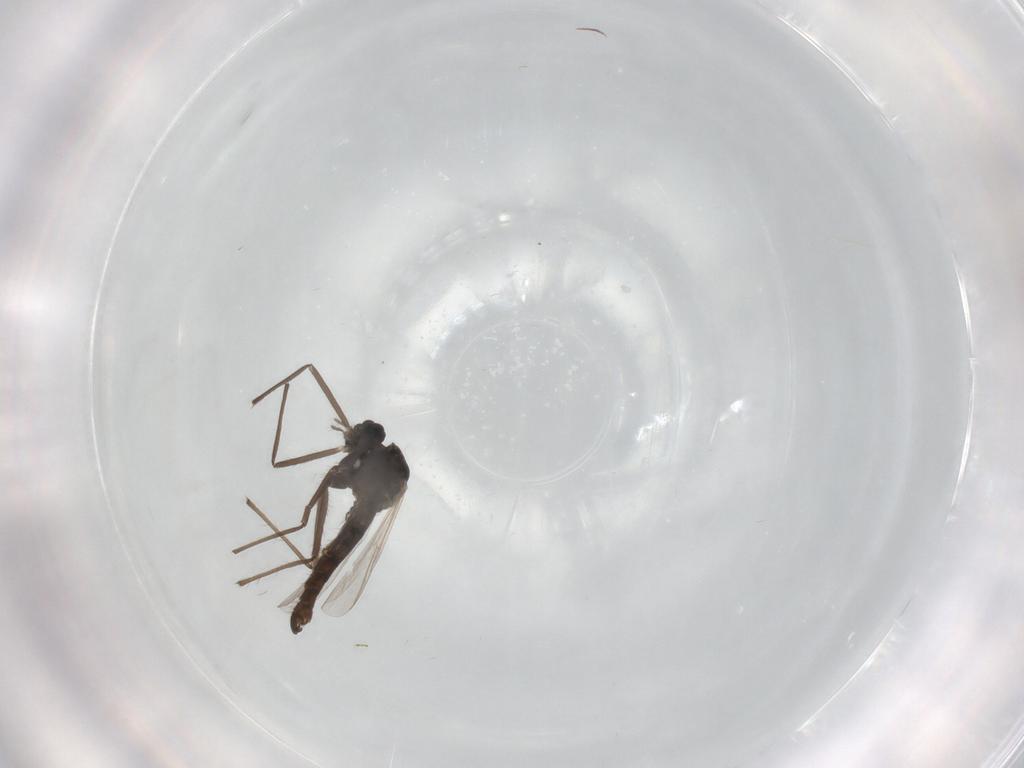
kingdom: Animalia
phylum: Arthropoda
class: Insecta
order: Diptera
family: Chironomidae
